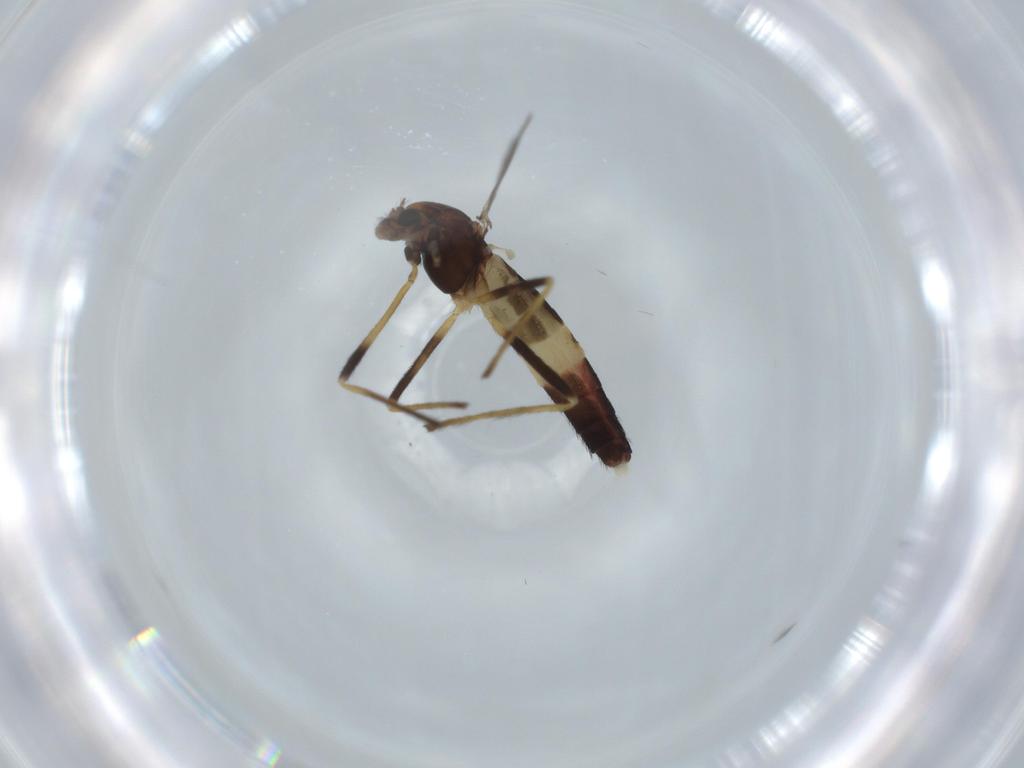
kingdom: Animalia
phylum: Arthropoda
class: Insecta
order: Diptera
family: Chironomidae
